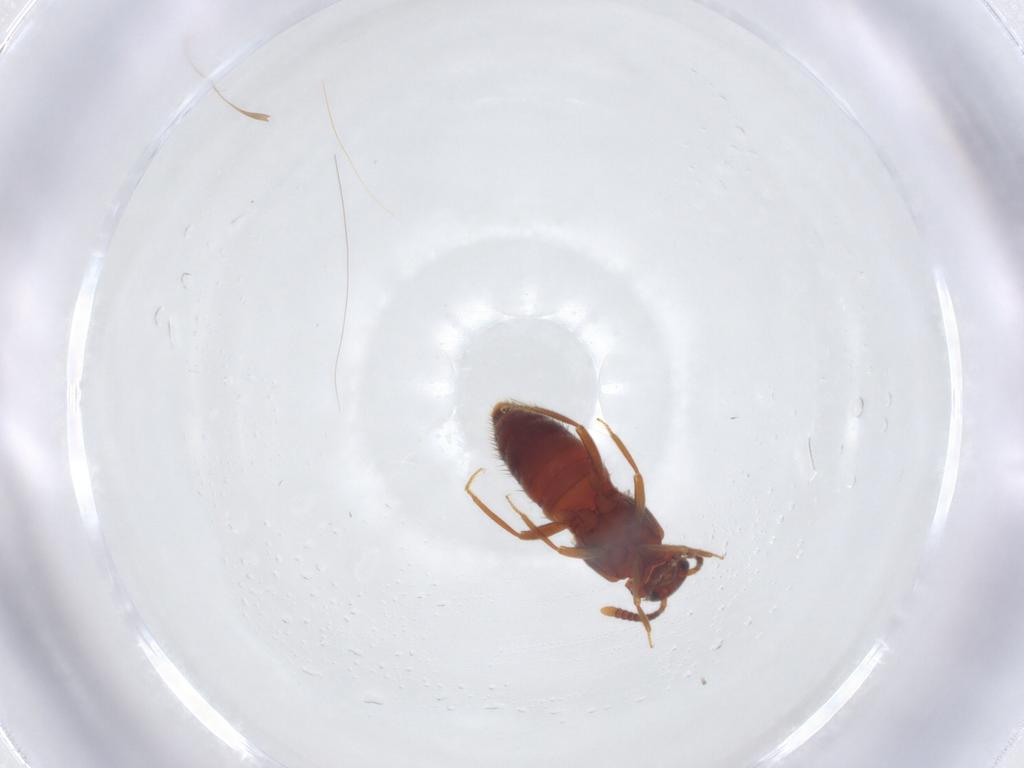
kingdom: Animalia
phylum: Arthropoda
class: Insecta
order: Coleoptera
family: Staphylinidae
